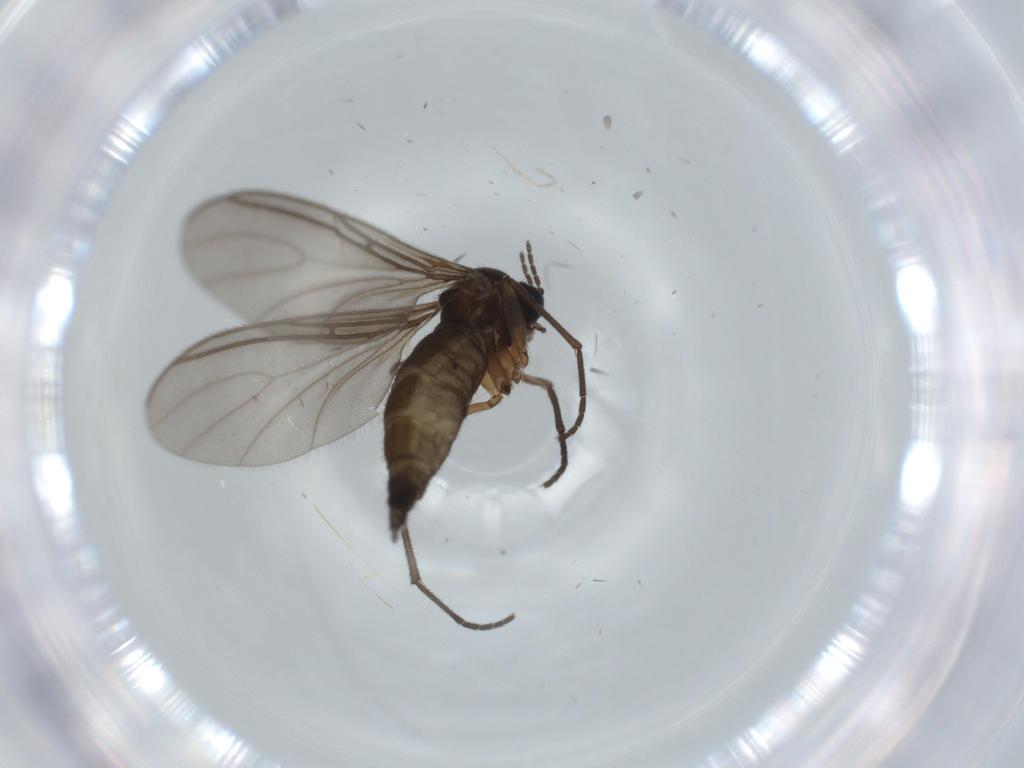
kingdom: Animalia
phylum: Arthropoda
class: Insecta
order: Diptera
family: Sciaridae
